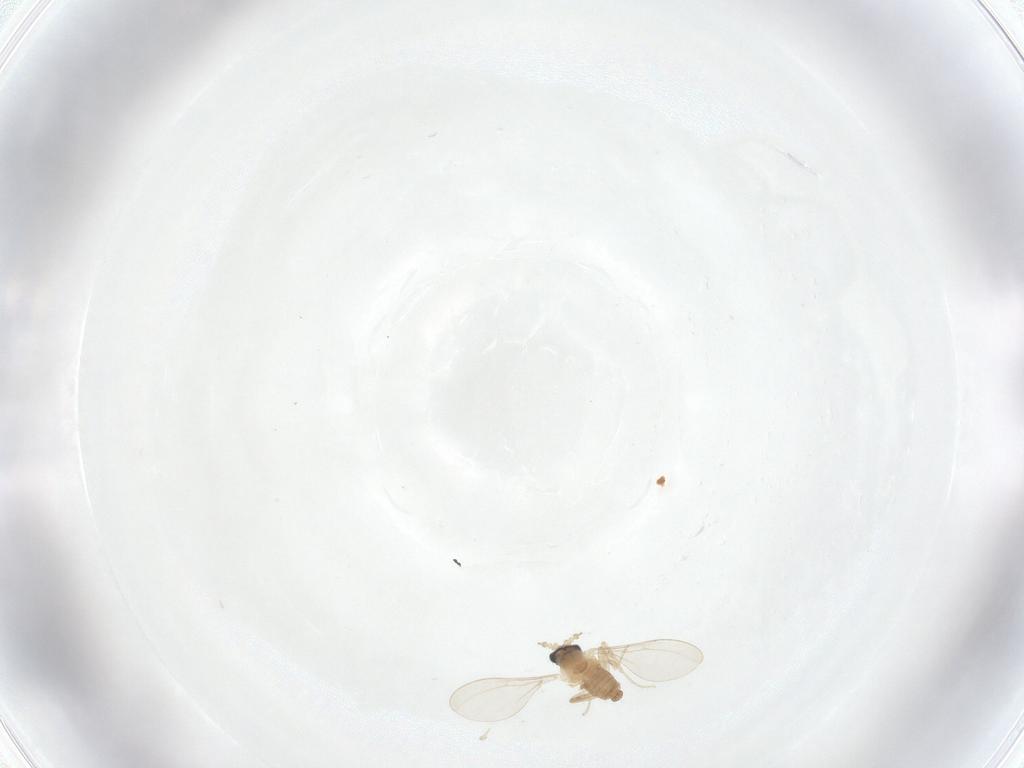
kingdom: Animalia
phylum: Arthropoda
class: Insecta
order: Diptera
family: Cecidomyiidae
